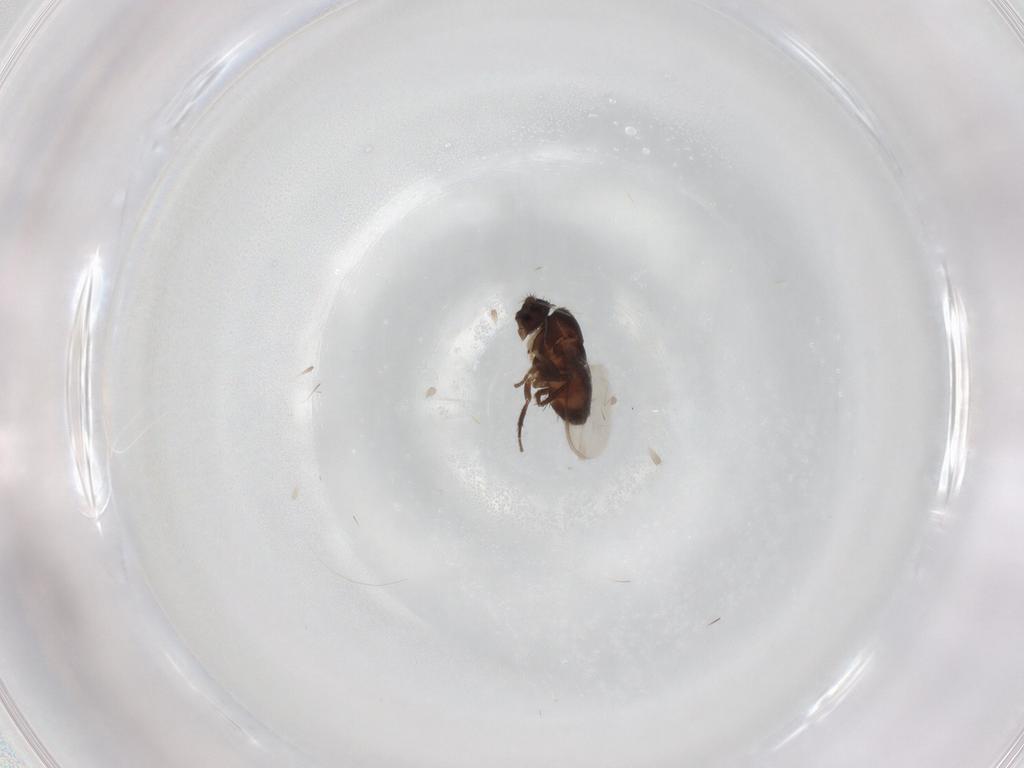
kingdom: Animalia
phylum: Arthropoda
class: Insecta
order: Diptera
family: Sphaeroceridae
